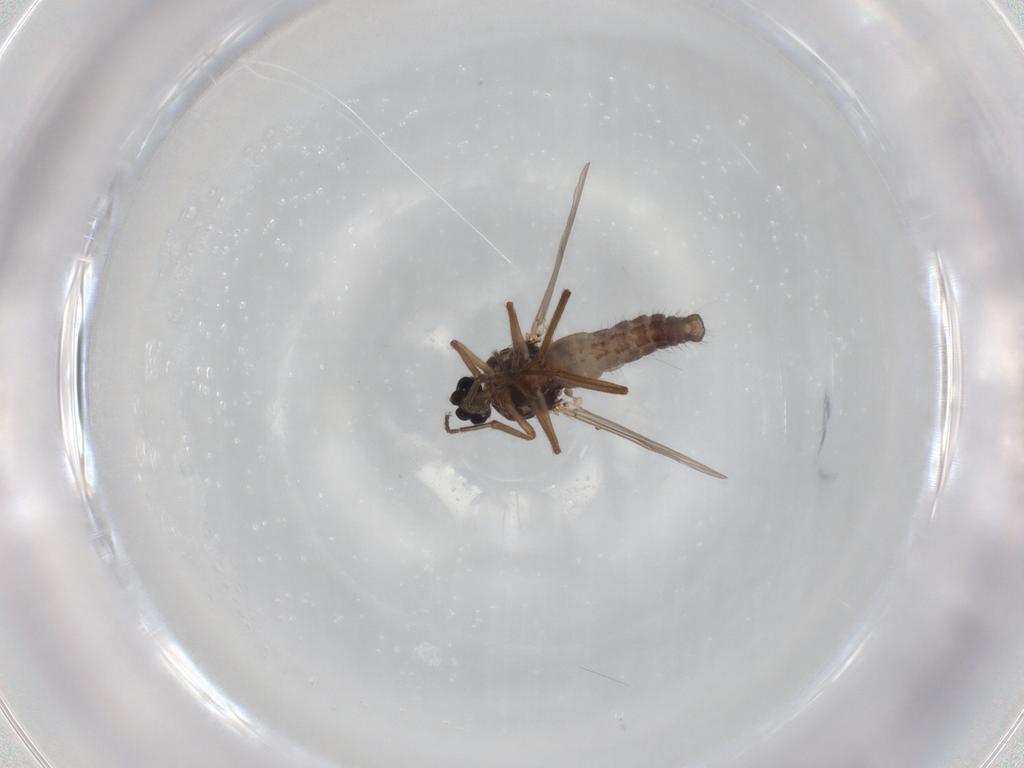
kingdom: Animalia
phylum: Arthropoda
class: Insecta
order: Diptera
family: Ceratopogonidae
